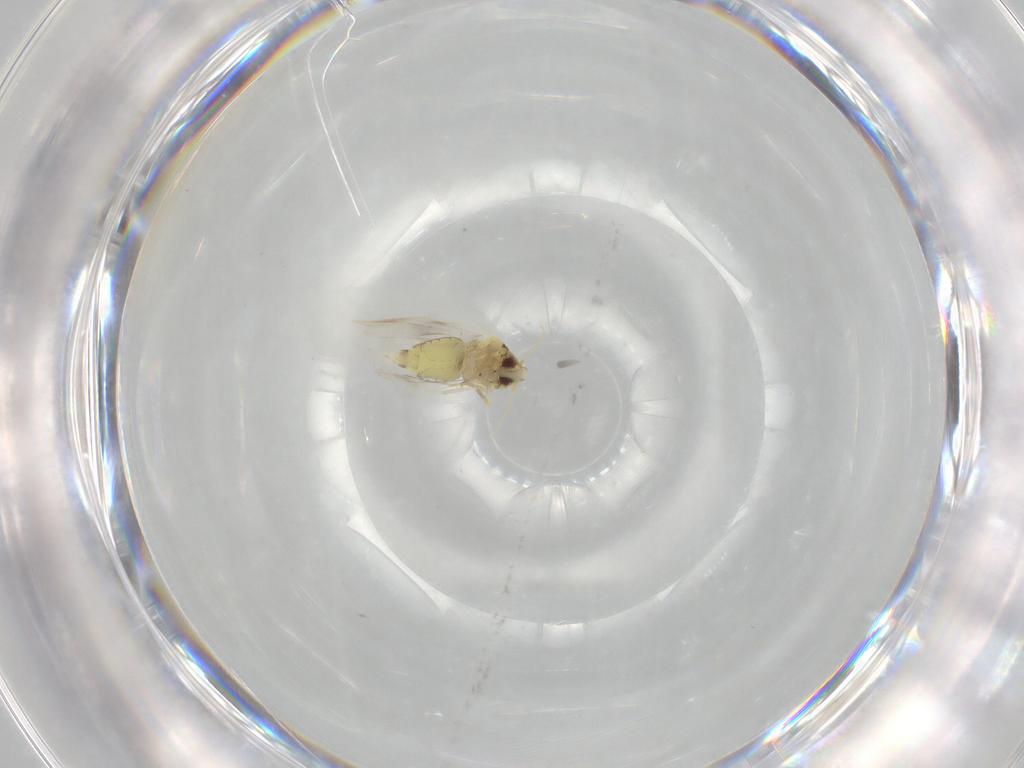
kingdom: Animalia
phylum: Arthropoda
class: Insecta
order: Hemiptera
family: Aleyrodidae
